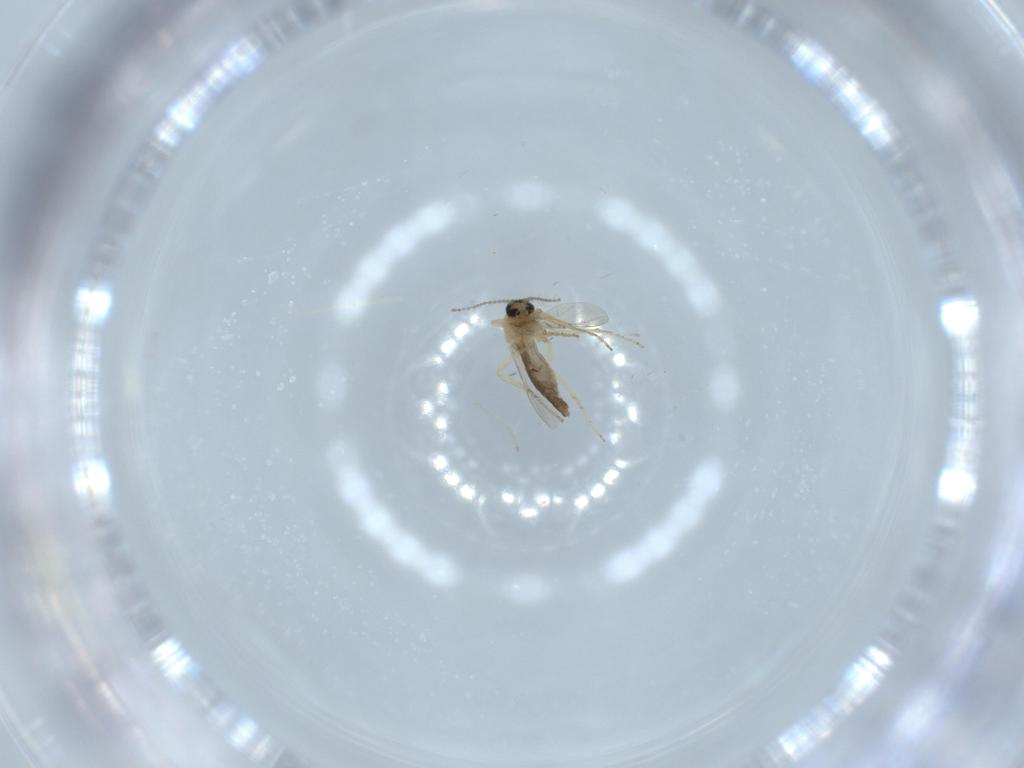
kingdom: Animalia
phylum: Arthropoda
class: Insecta
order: Diptera
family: Ceratopogonidae
